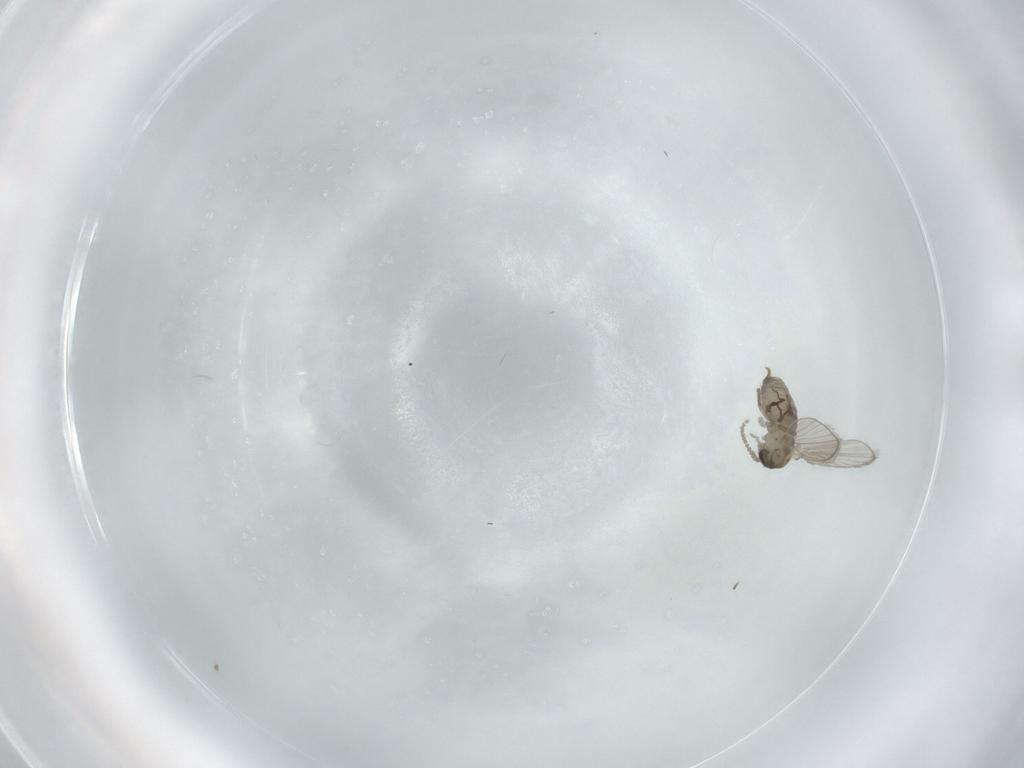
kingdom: Animalia
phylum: Arthropoda
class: Insecta
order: Diptera
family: Psychodidae
